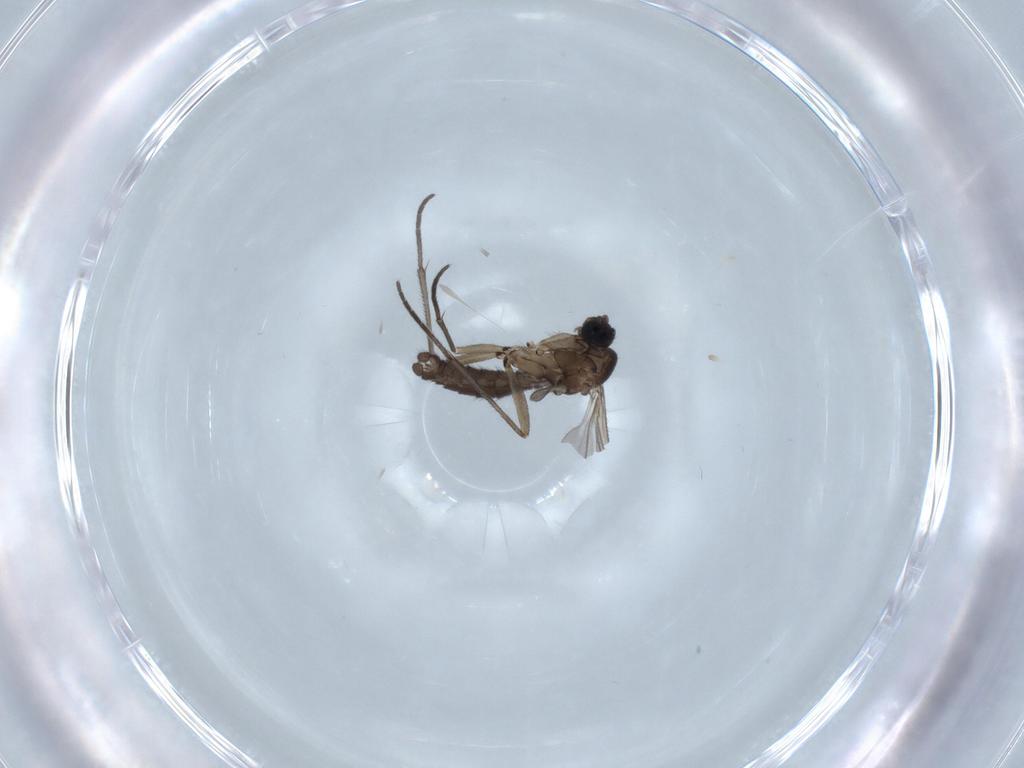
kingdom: Animalia
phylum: Arthropoda
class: Insecta
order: Diptera
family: Sciaridae
